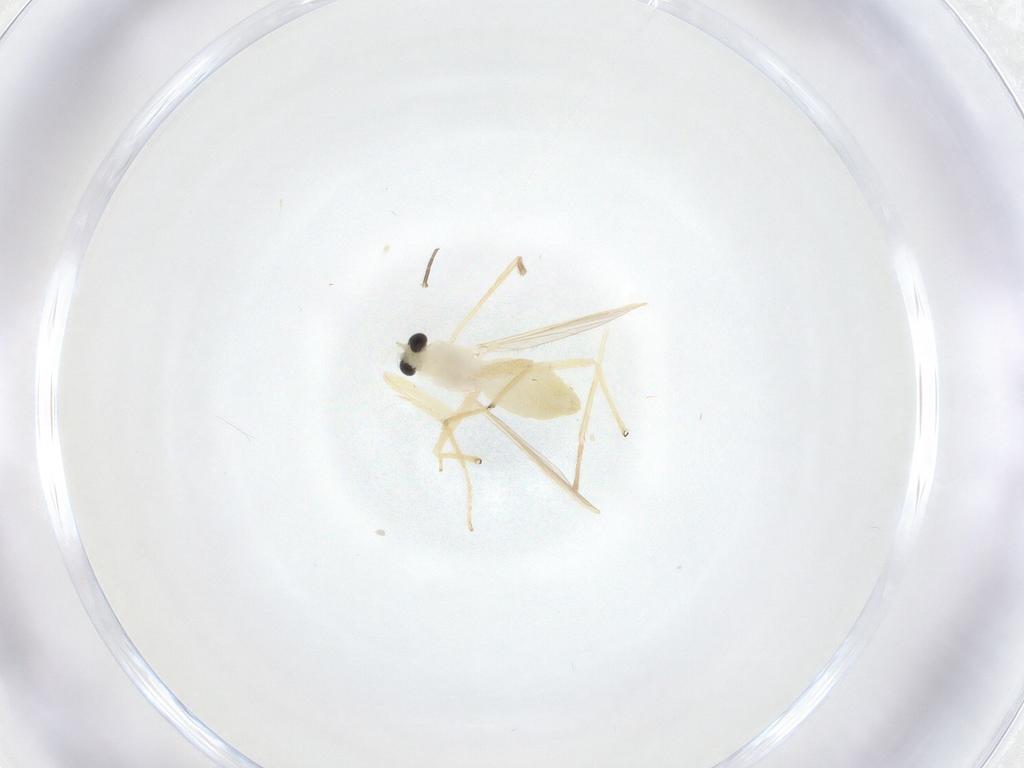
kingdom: Animalia
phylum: Arthropoda
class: Insecta
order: Diptera
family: Chironomidae
